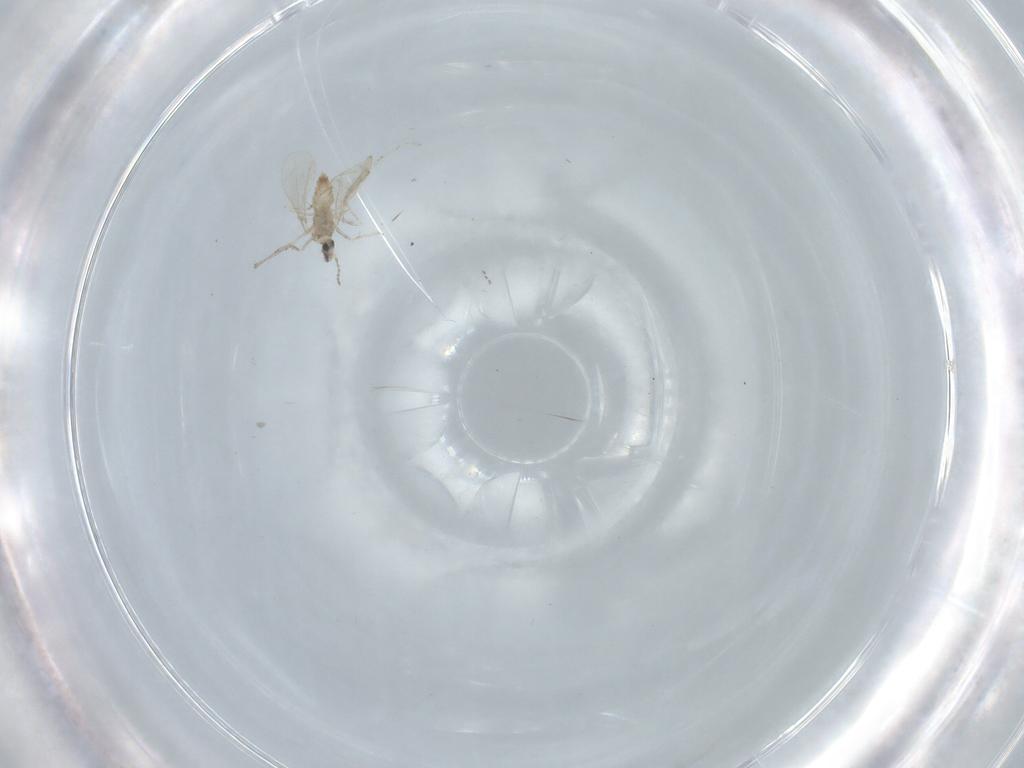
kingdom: Animalia
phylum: Arthropoda
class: Insecta
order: Diptera
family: Cecidomyiidae
